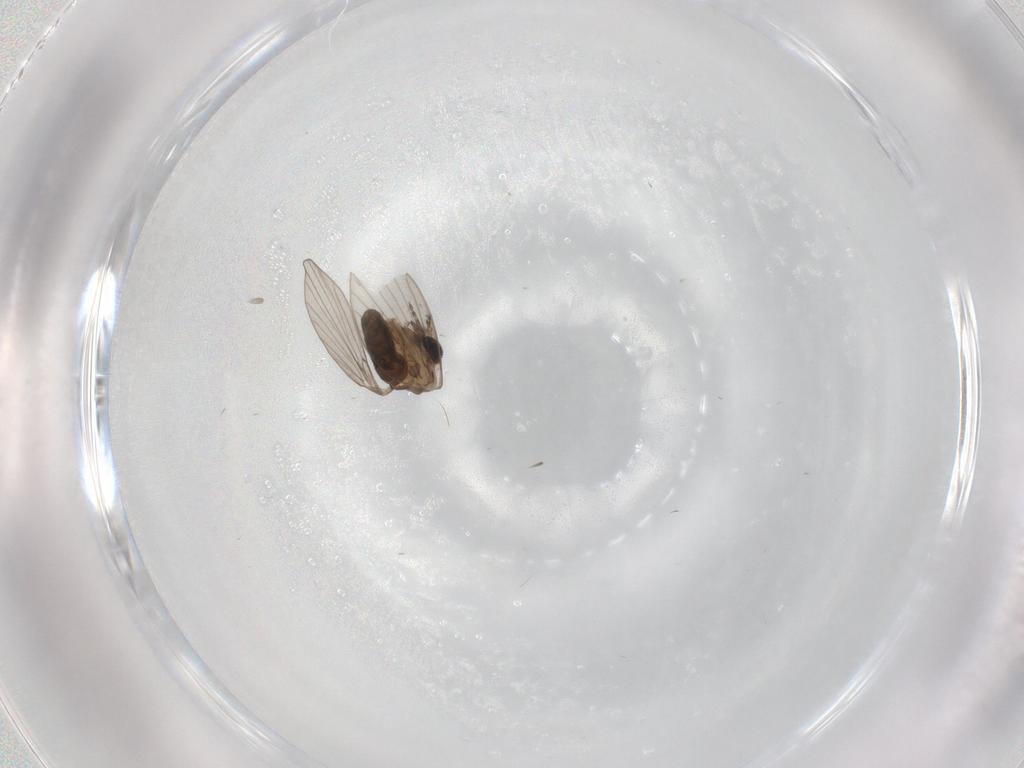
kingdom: Animalia
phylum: Arthropoda
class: Insecta
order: Diptera
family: Psychodidae
